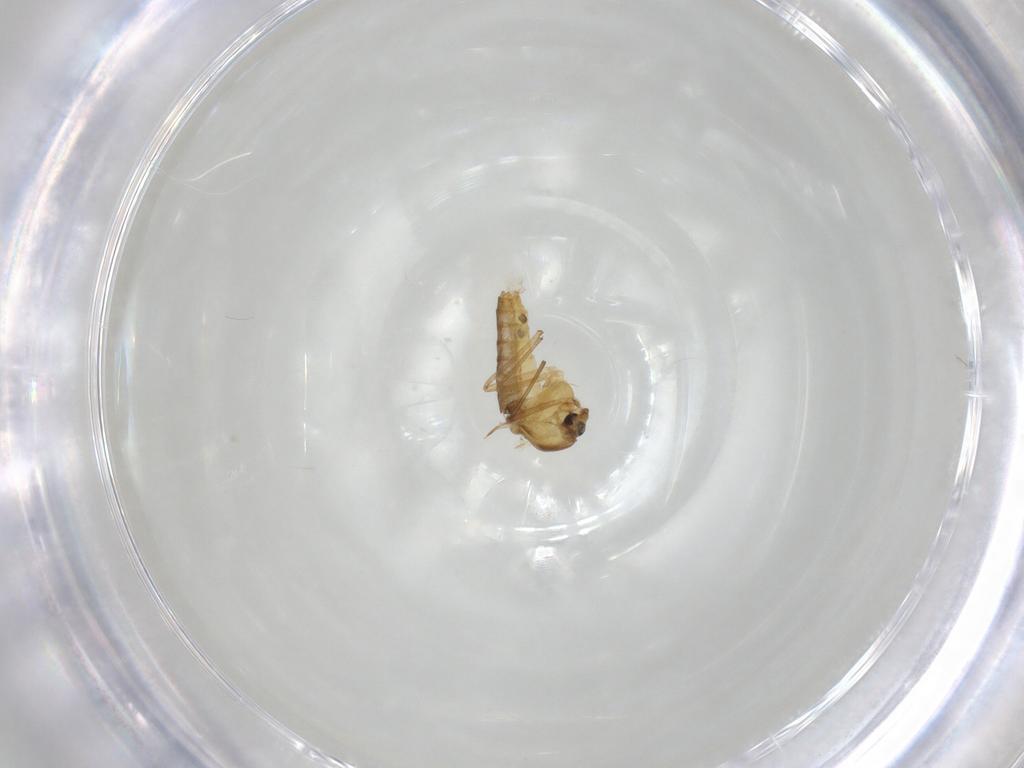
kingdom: Animalia
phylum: Arthropoda
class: Insecta
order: Diptera
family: Chironomidae
